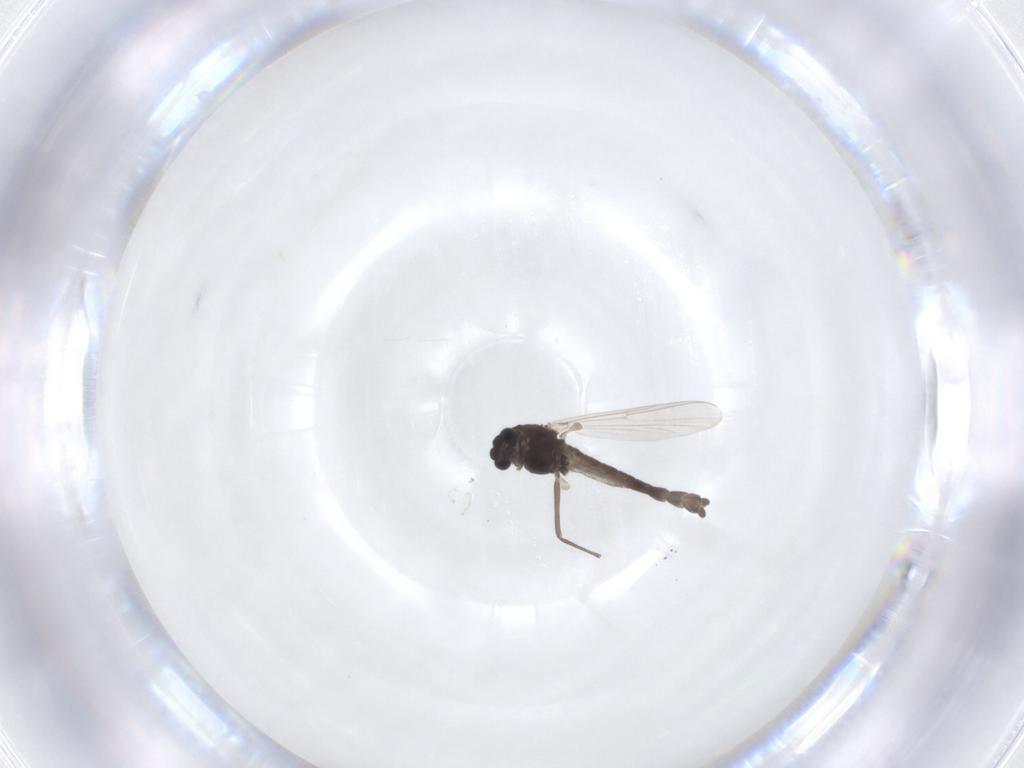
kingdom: Animalia
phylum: Arthropoda
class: Insecta
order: Diptera
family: Chironomidae
